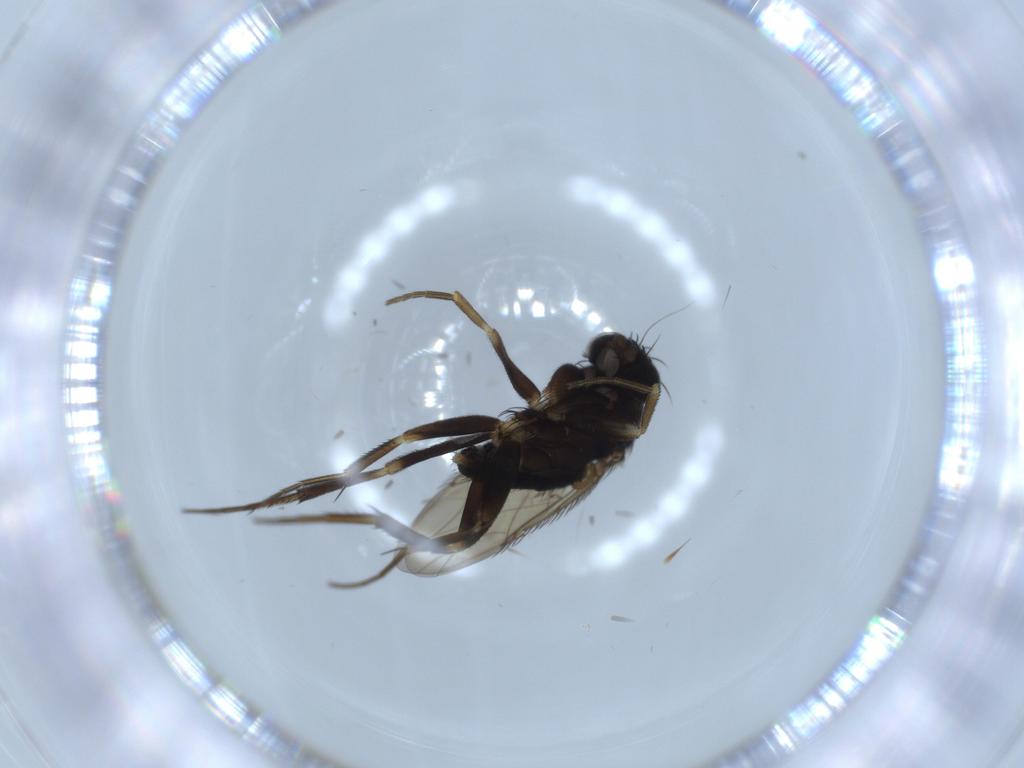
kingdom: Animalia
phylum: Arthropoda
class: Insecta
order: Diptera
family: Phoridae
